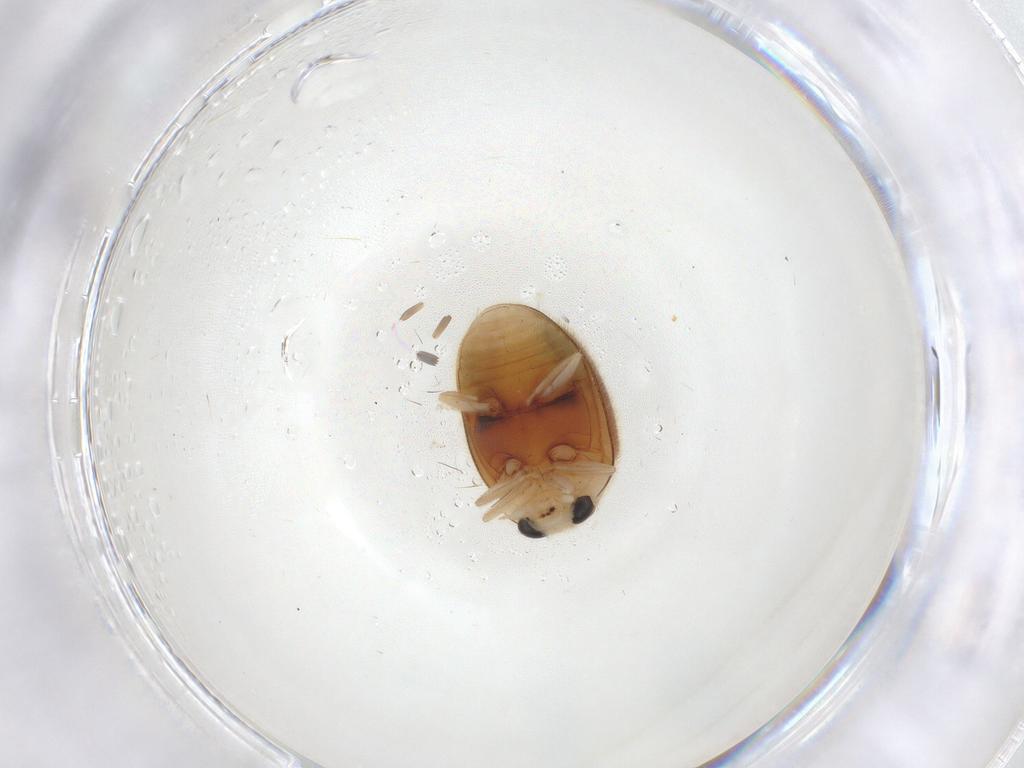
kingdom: Animalia
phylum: Arthropoda
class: Insecta
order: Coleoptera
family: Coccinellidae
